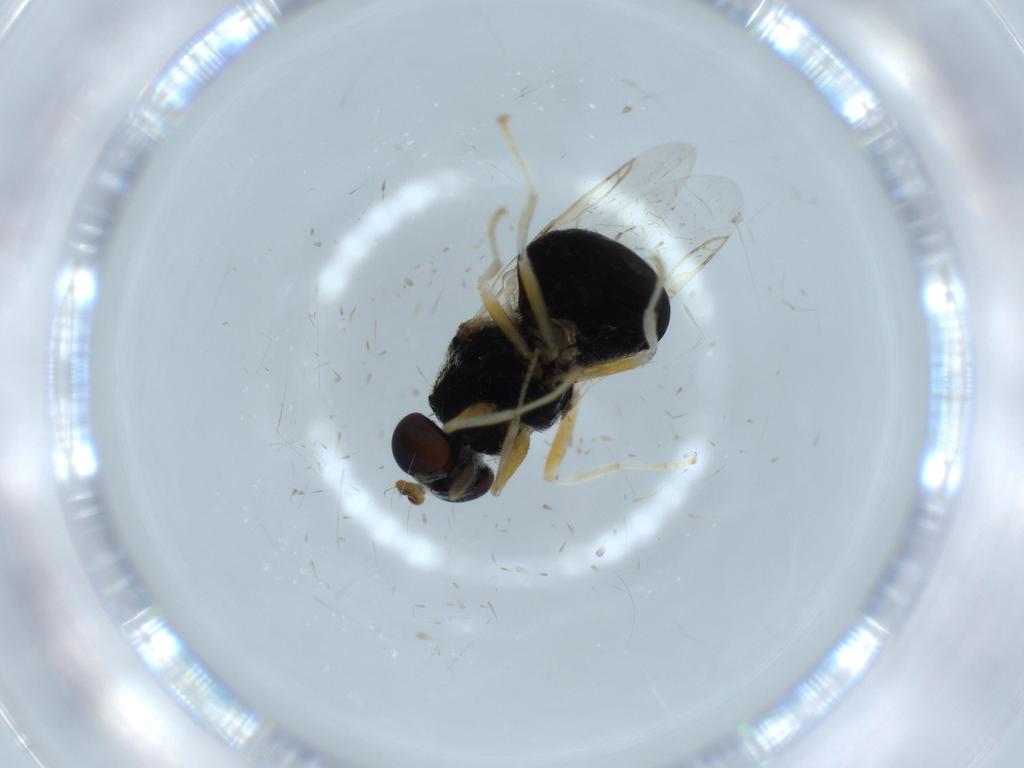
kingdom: Animalia
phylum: Arthropoda
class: Insecta
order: Diptera
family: Stratiomyidae
